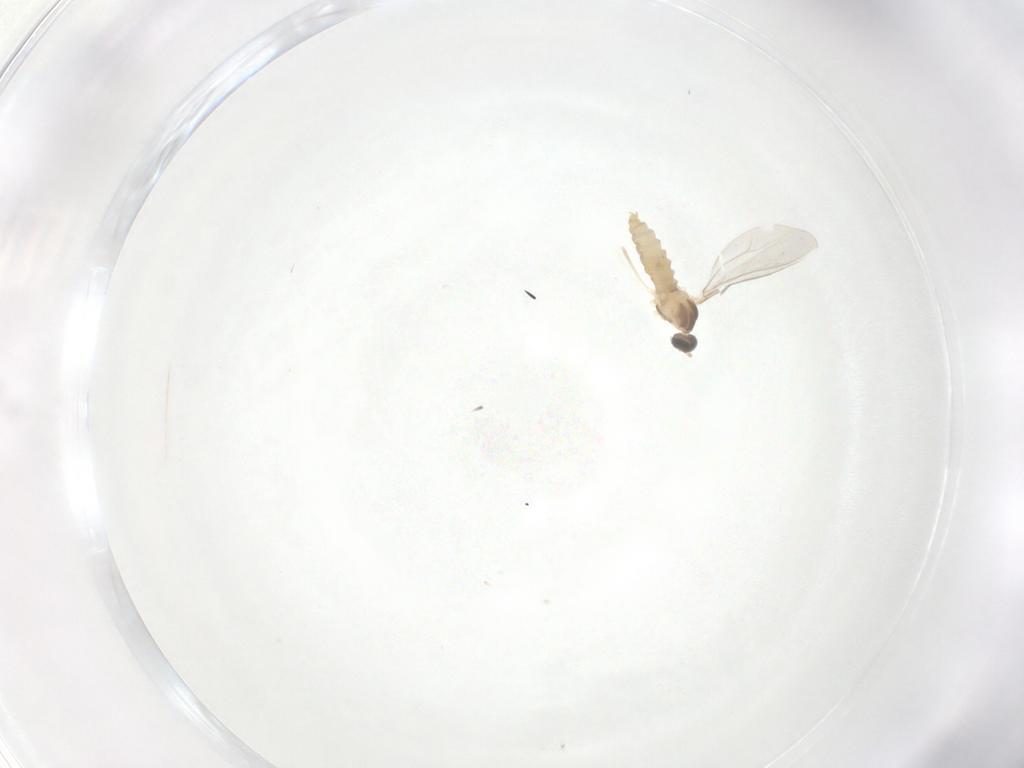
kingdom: Animalia
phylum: Arthropoda
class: Insecta
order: Diptera
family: Cecidomyiidae
